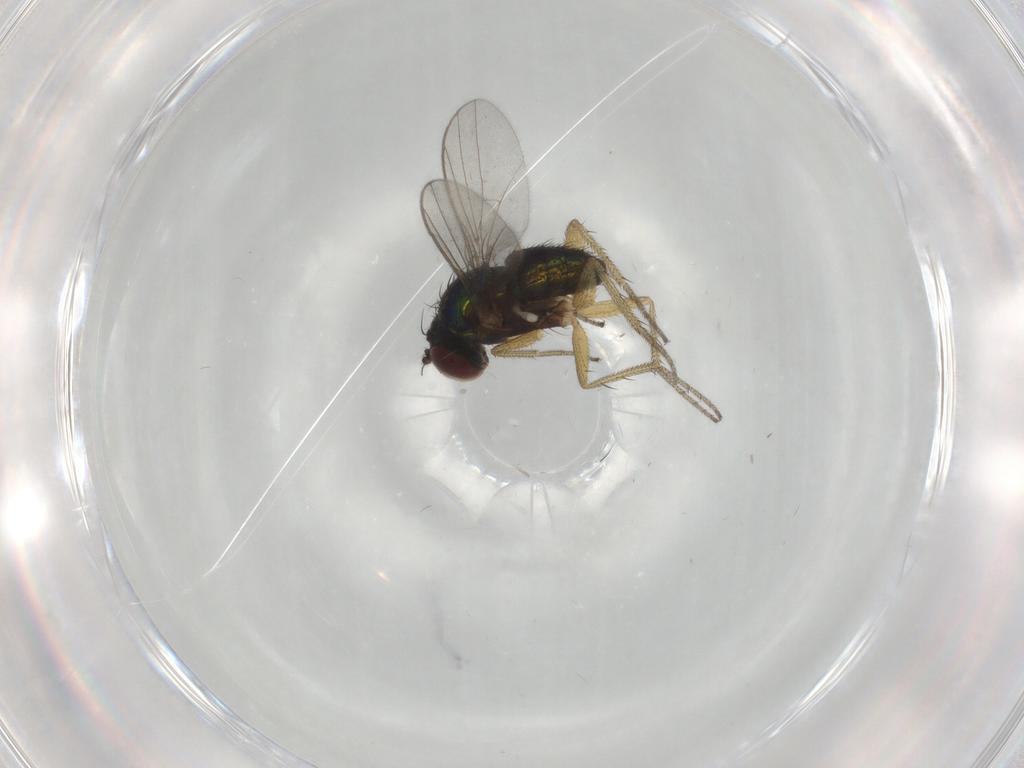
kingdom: Animalia
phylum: Arthropoda
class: Insecta
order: Diptera
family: Dolichopodidae
